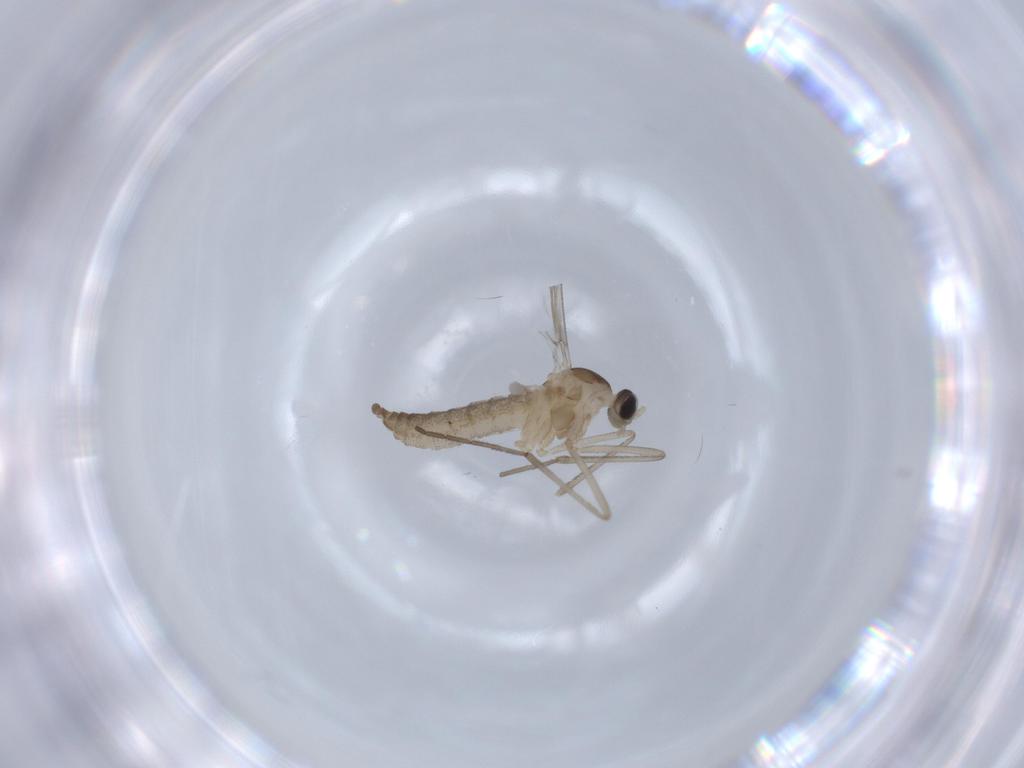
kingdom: Animalia
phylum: Arthropoda
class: Insecta
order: Diptera
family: Cecidomyiidae
